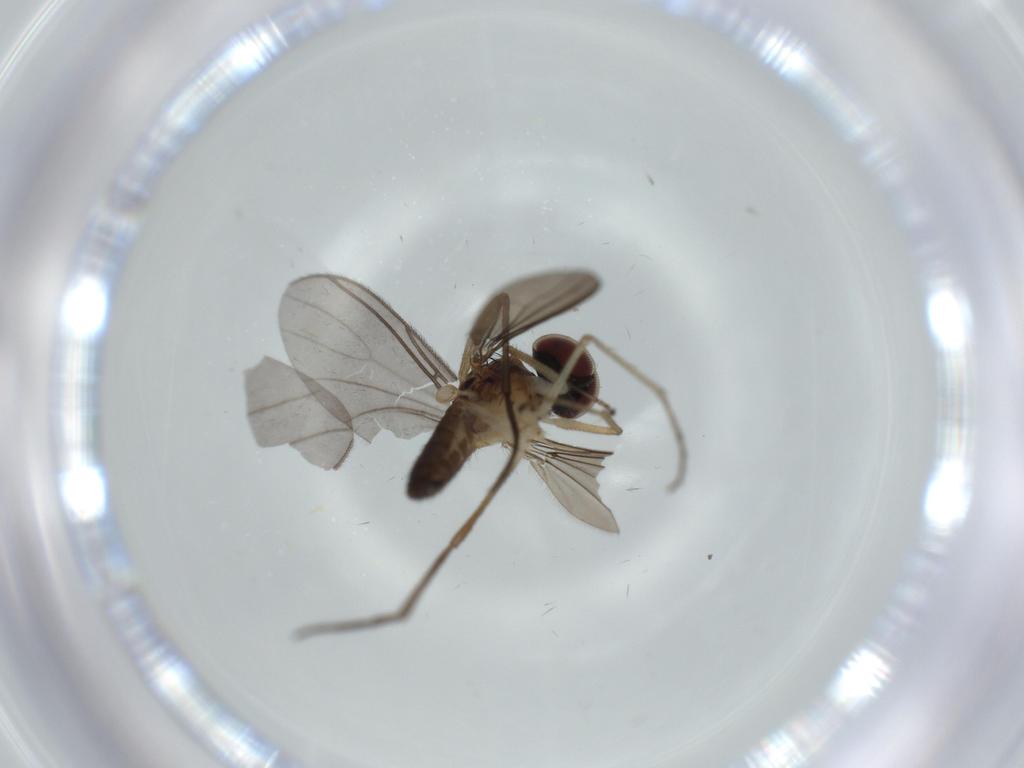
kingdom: Animalia
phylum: Arthropoda
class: Insecta
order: Diptera
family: Dolichopodidae
